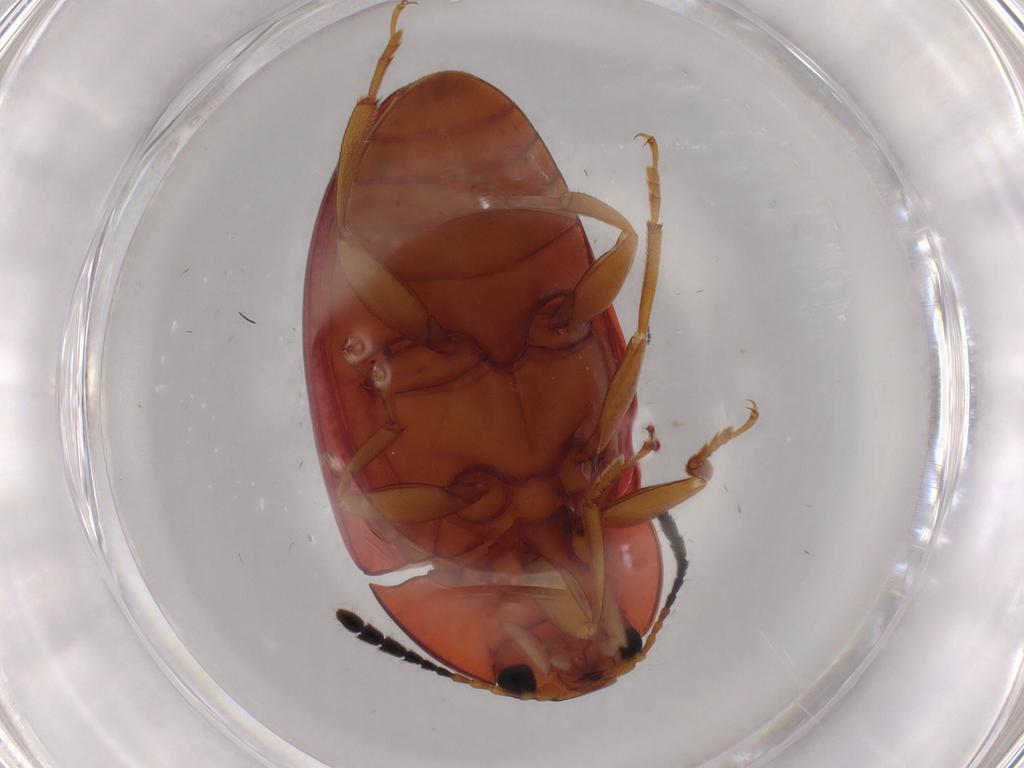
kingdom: Animalia
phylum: Arthropoda
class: Insecta
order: Coleoptera
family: Erotylidae
